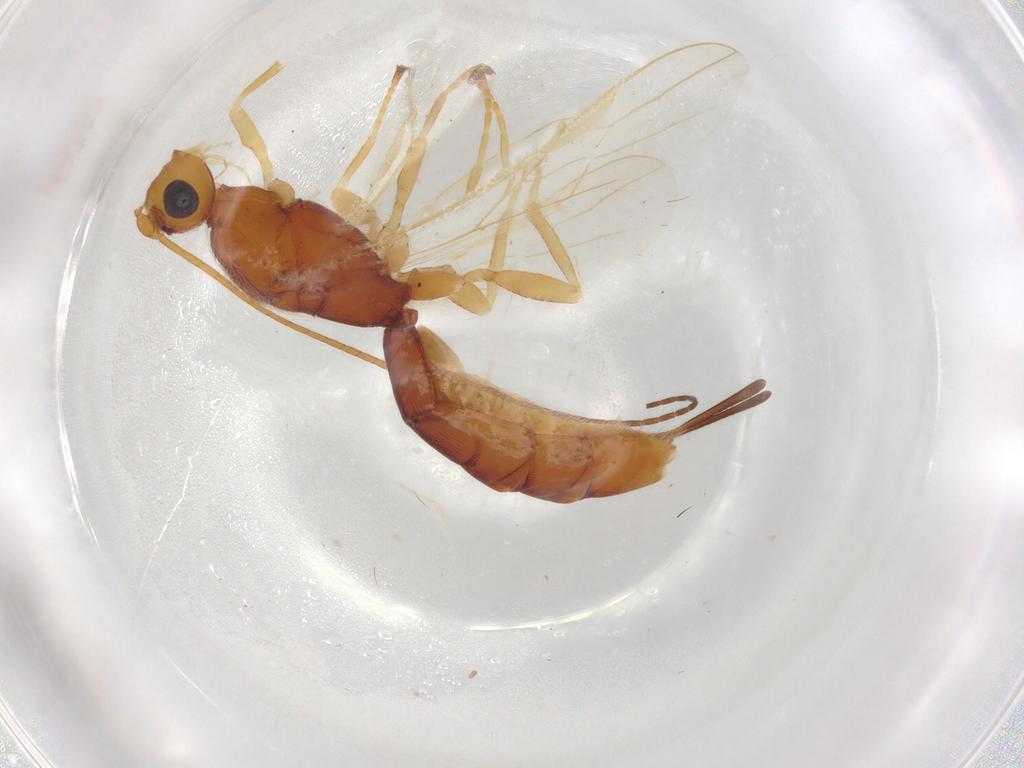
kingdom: Animalia
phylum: Arthropoda
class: Insecta
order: Hymenoptera
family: Braconidae
